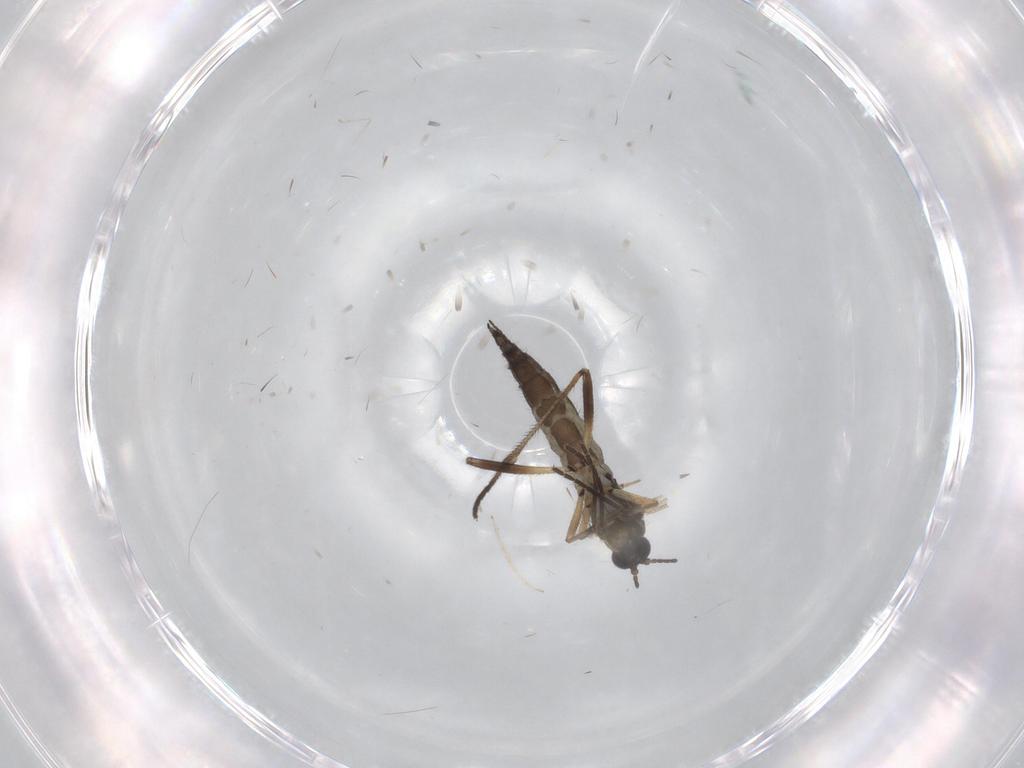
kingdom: Animalia
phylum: Arthropoda
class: Insecta
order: Diptera
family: Sciaridae
